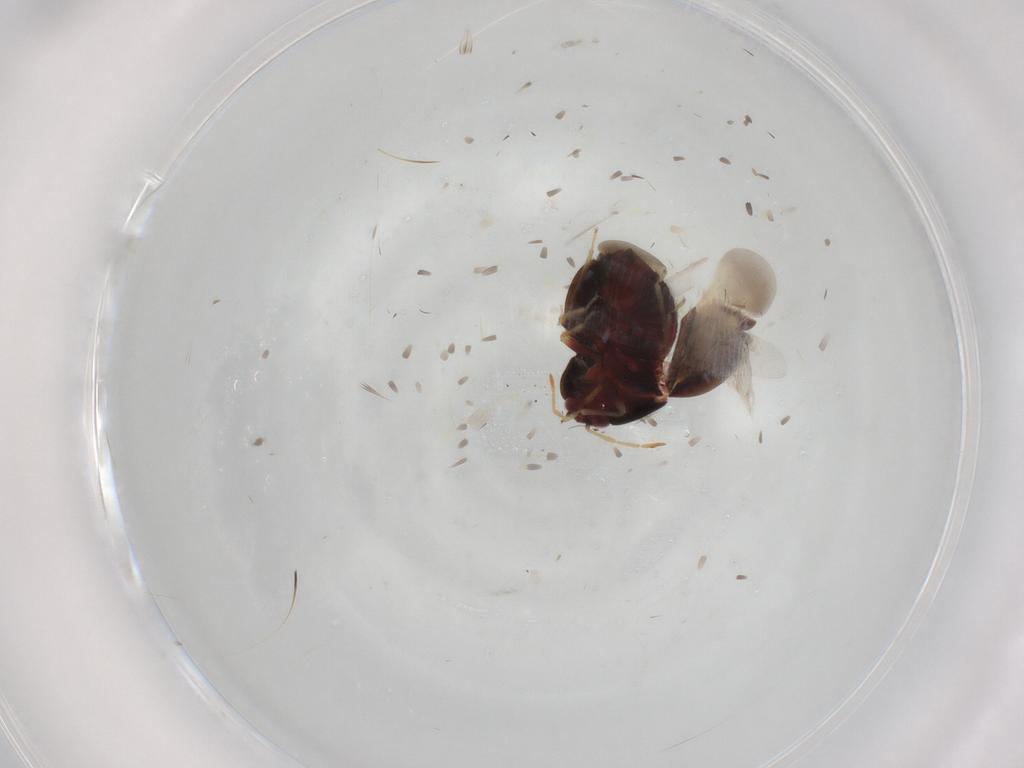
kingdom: Animalia
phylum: Arthropoda
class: Insecta
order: Hemiptera
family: Anthocoridae
